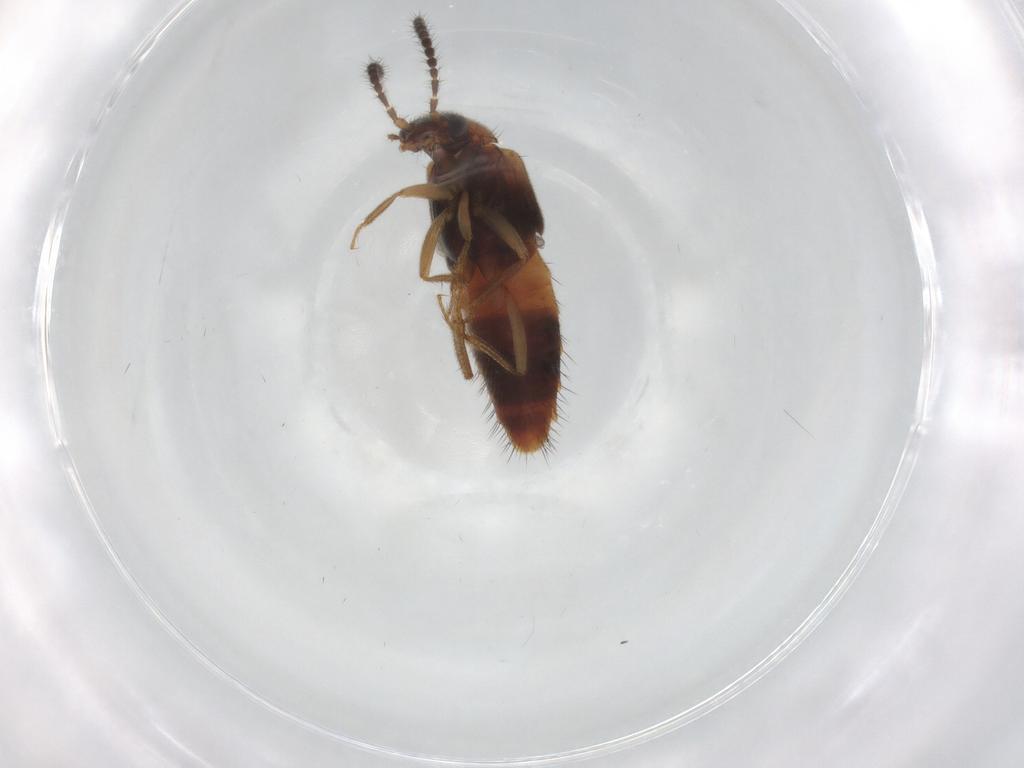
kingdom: Animalia
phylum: Arthropoda
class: Insecta
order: Coleoptera
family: Staphylinidae
